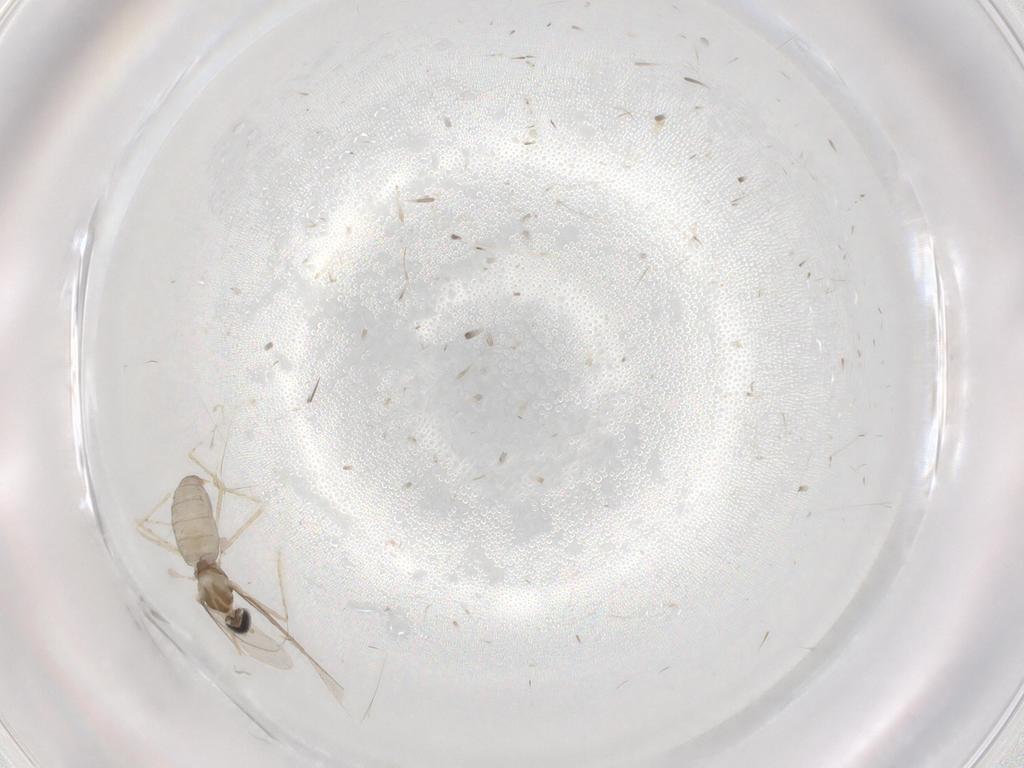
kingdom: Animalia
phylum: Arthropoda
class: Insecta
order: Diptera
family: Cecidomyiidae
